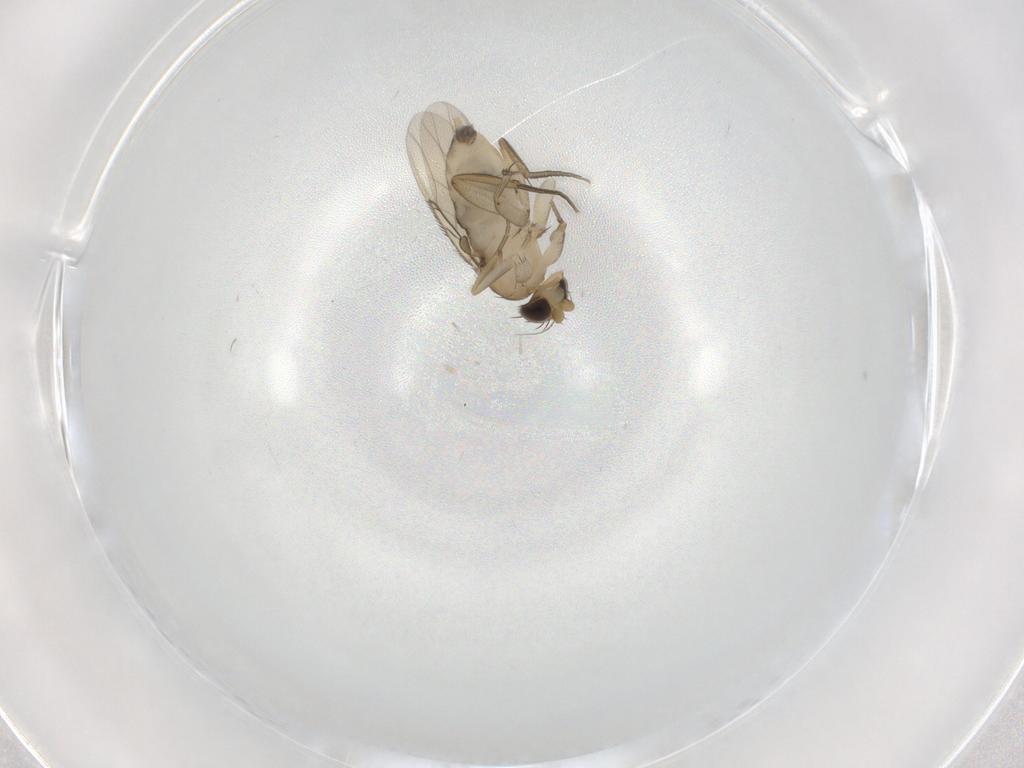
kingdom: Animalia
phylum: Arthropoda
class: Insecta
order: Diptera
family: Phoridae
